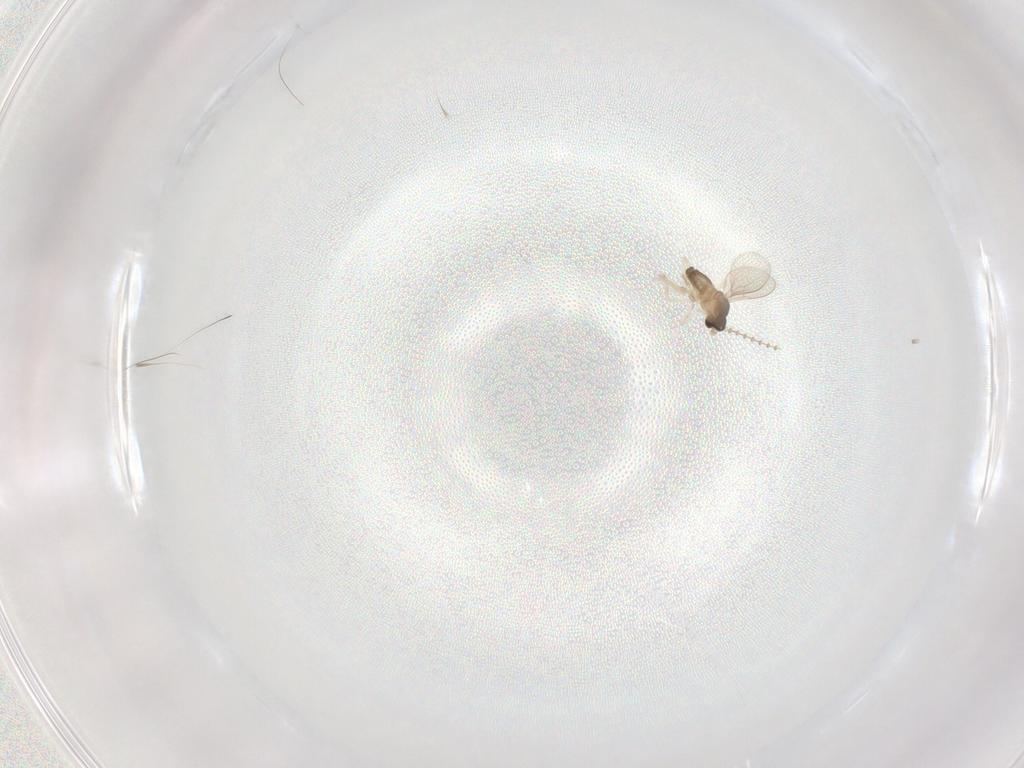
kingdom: Animalia
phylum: Arthropoda
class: Insecta
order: Diptera
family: Cecidomyiidae
